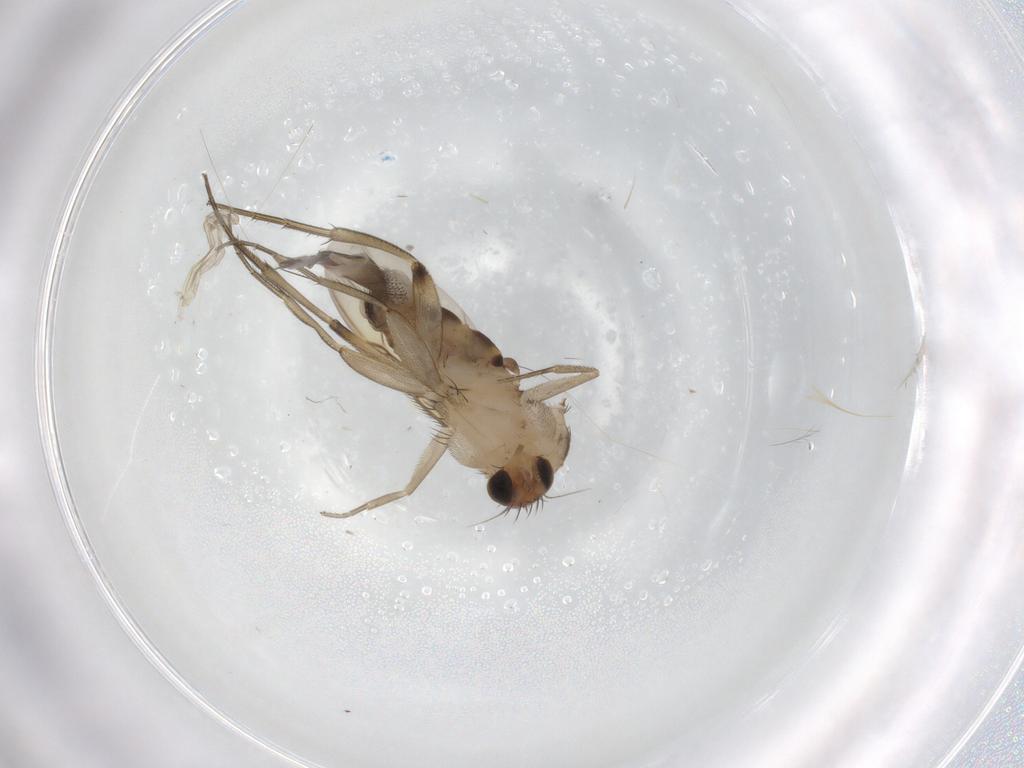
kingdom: Animalia
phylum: Arthropoda
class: Insecta
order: Diptera
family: Phoridae
